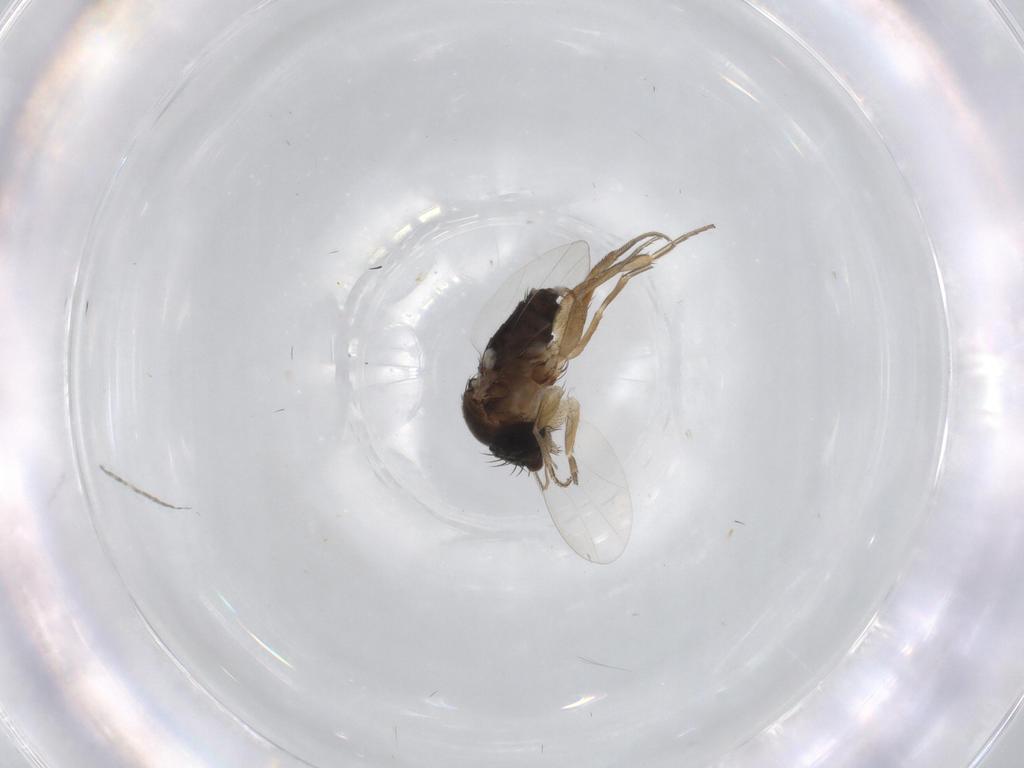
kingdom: Animalia
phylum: Arthropoda
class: Insecta
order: Diptera
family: Phoridae
